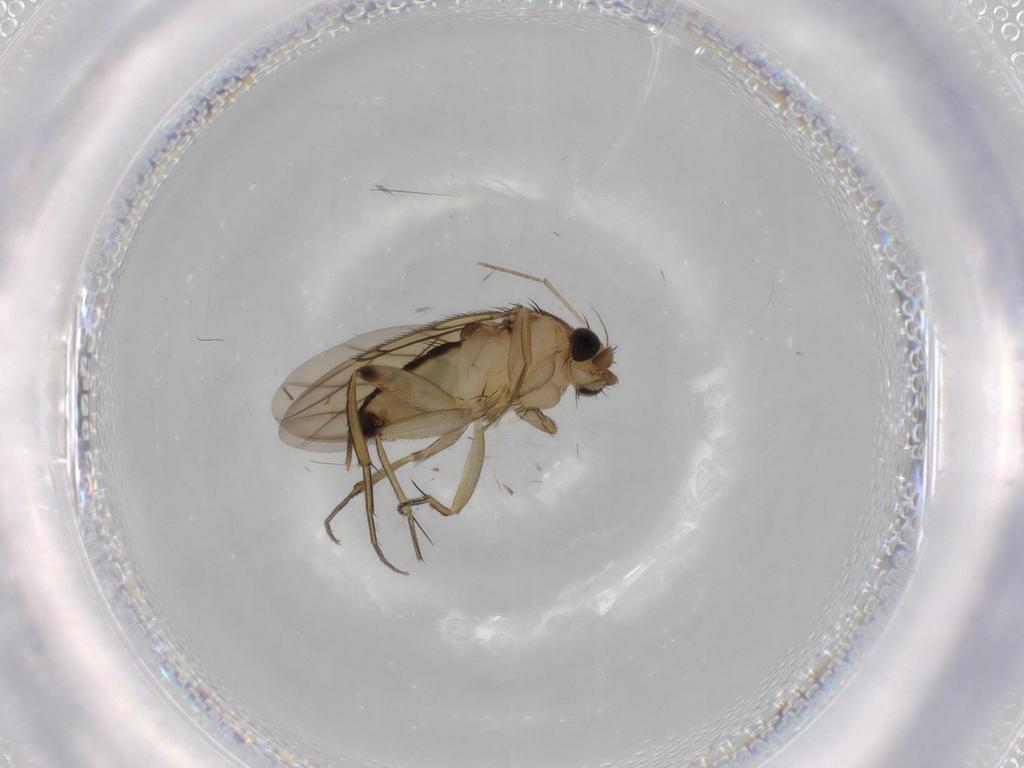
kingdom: Animalia
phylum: Arthropoda
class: Insecta
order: Diptera
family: Phoridae
